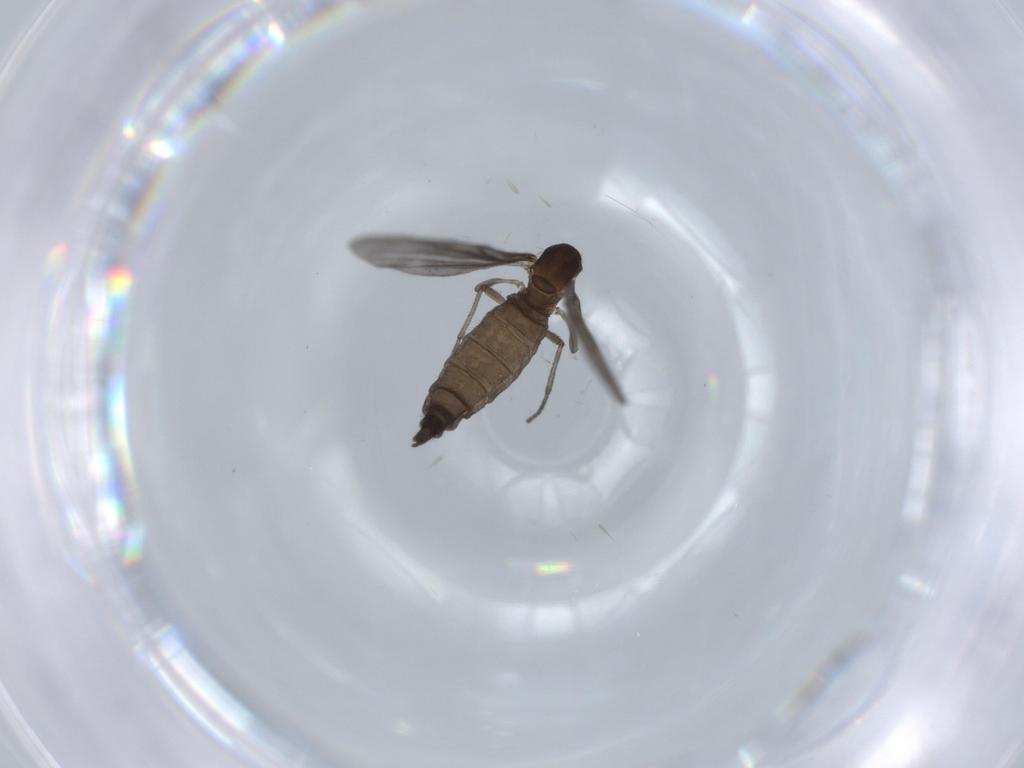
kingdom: Animalia
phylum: Arthropoda
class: Insecta
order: Diptera
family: Sciaridae
